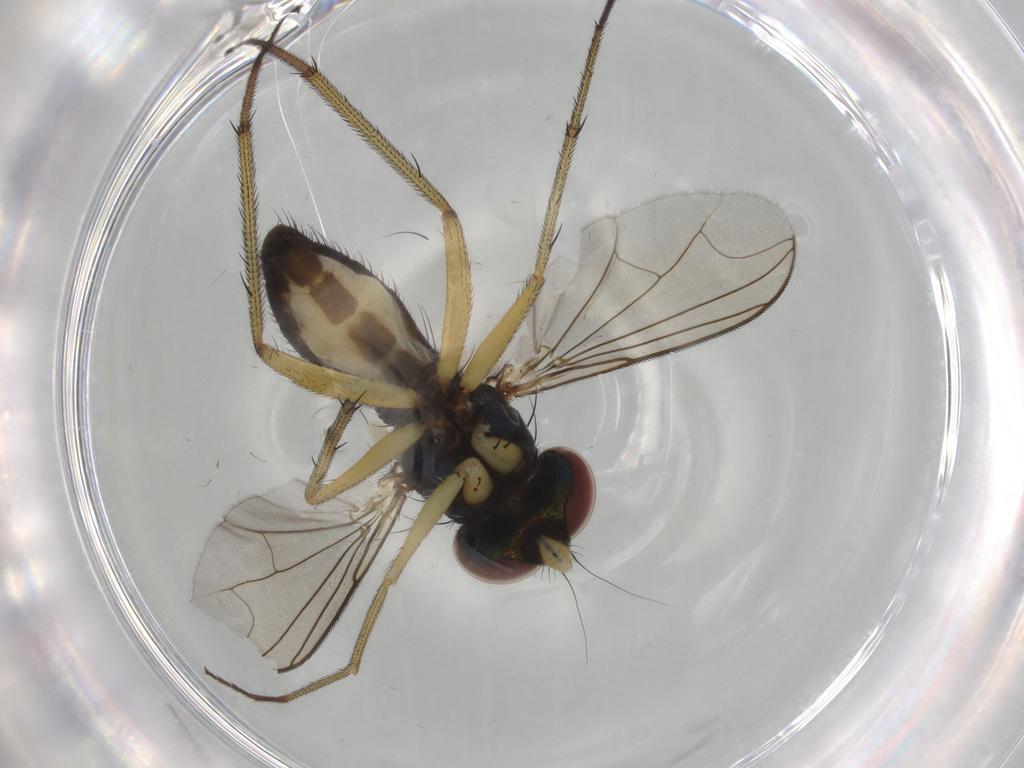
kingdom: Animalia
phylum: Arthropoda
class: Insecta
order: Diptera
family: Dolichopodidae
